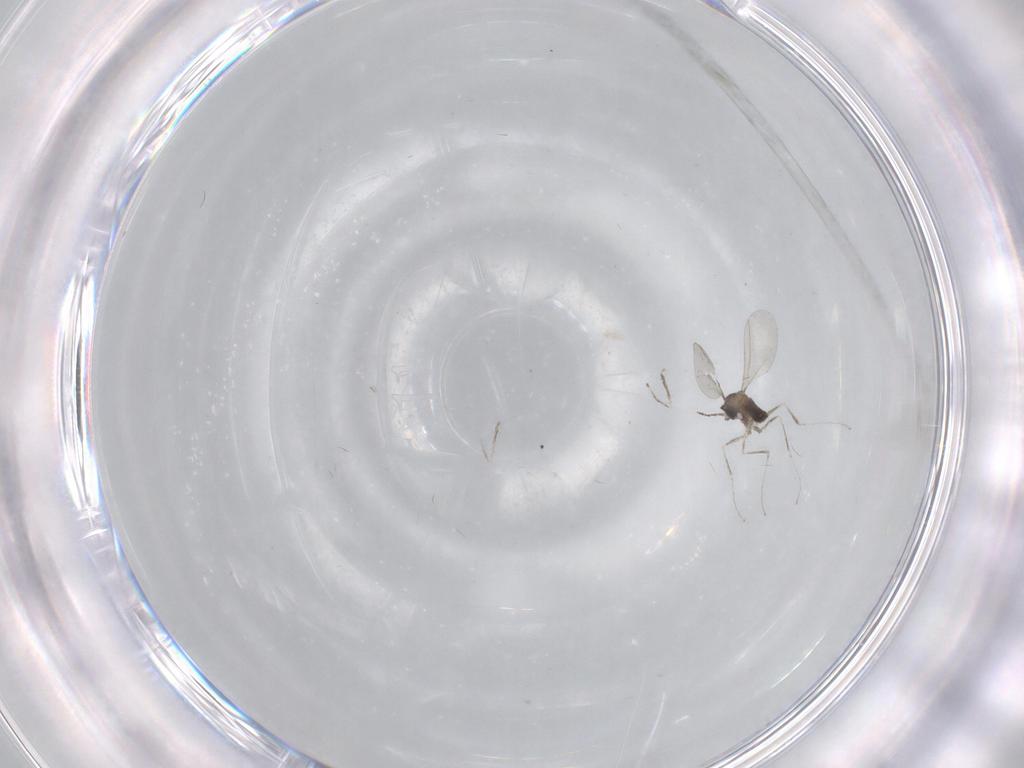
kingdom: Animalia
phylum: Arthropoda
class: Insecta
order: Diptera
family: Cecidomyiidae
